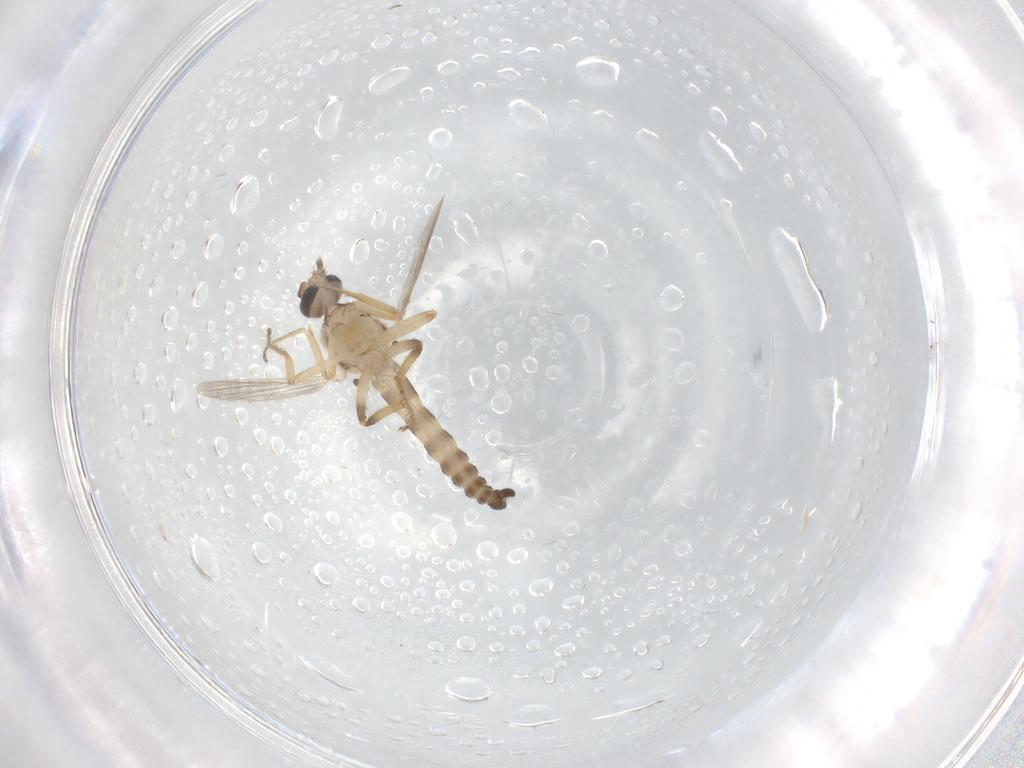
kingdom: Animalia
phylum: Arthropoda
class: Insecta
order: Diptera
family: Ceratopogonidae
